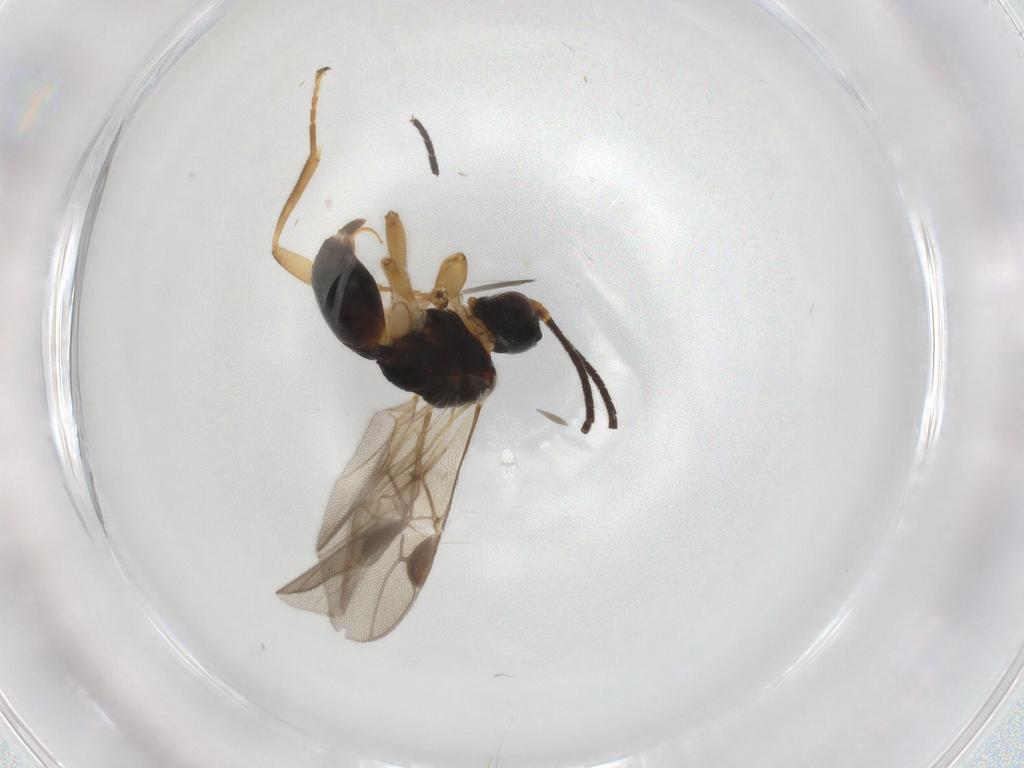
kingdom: Animalia
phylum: Arthropoda
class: Insecta
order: Hymenoptera
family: Braconidae
